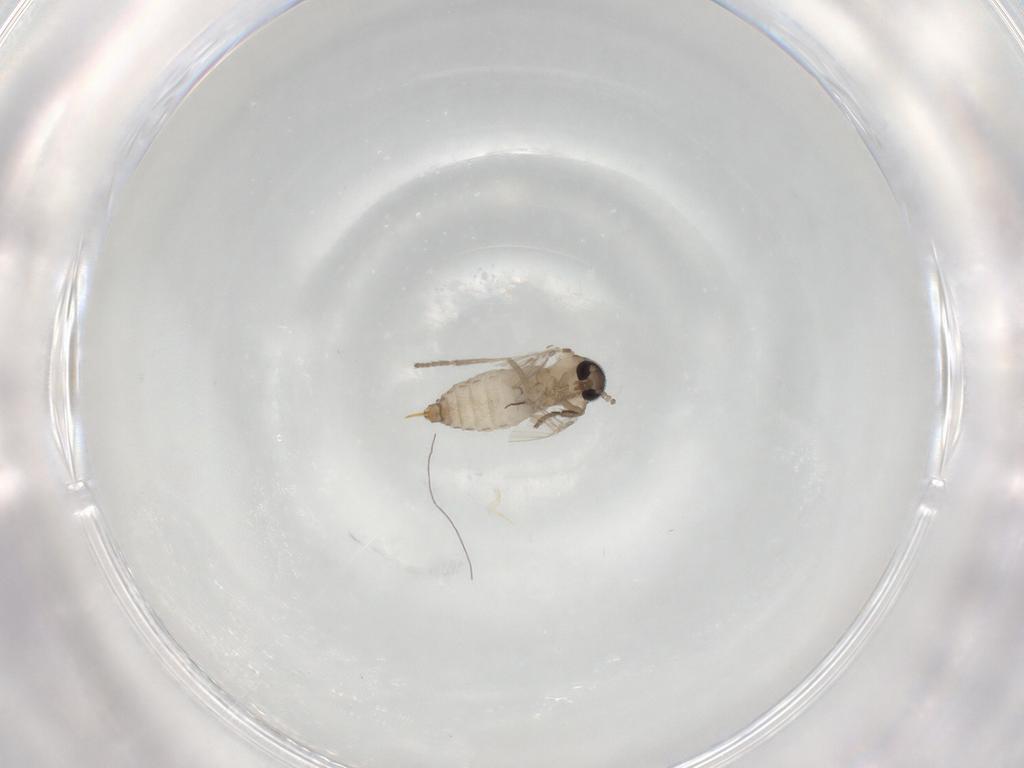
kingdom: Animalia
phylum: Arthropoda
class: Insecta
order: Diptera
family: Psychodidae
